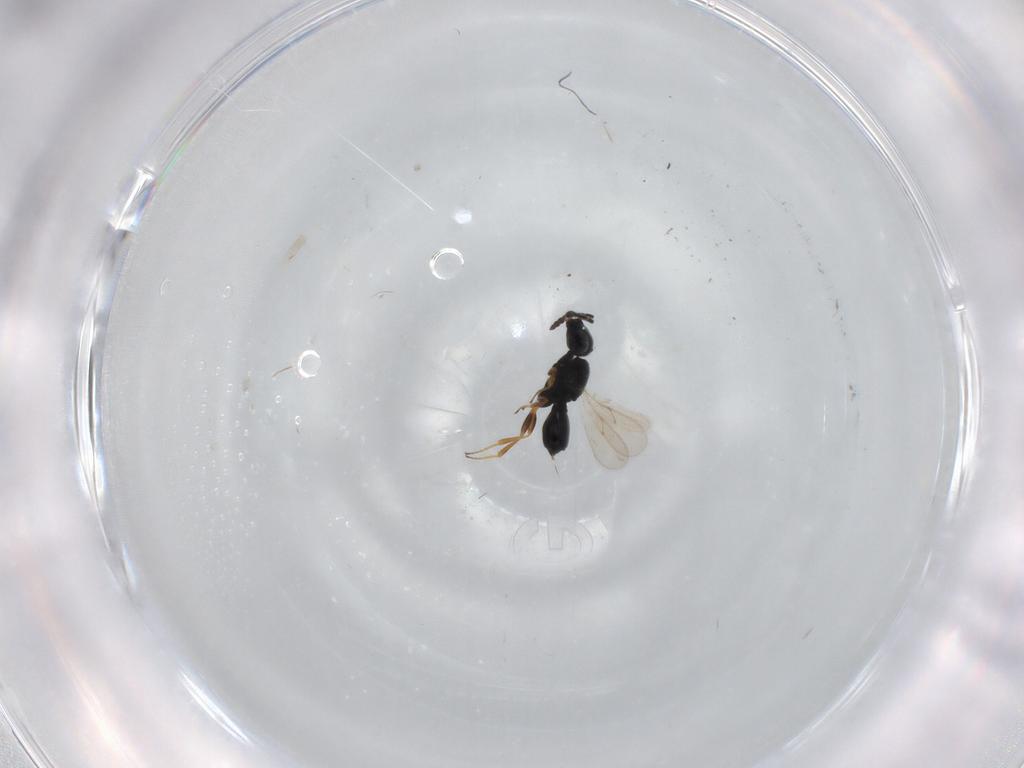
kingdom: Animalia
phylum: Arthropoda
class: Insecta
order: Hymenoptera
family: Scelionidae
